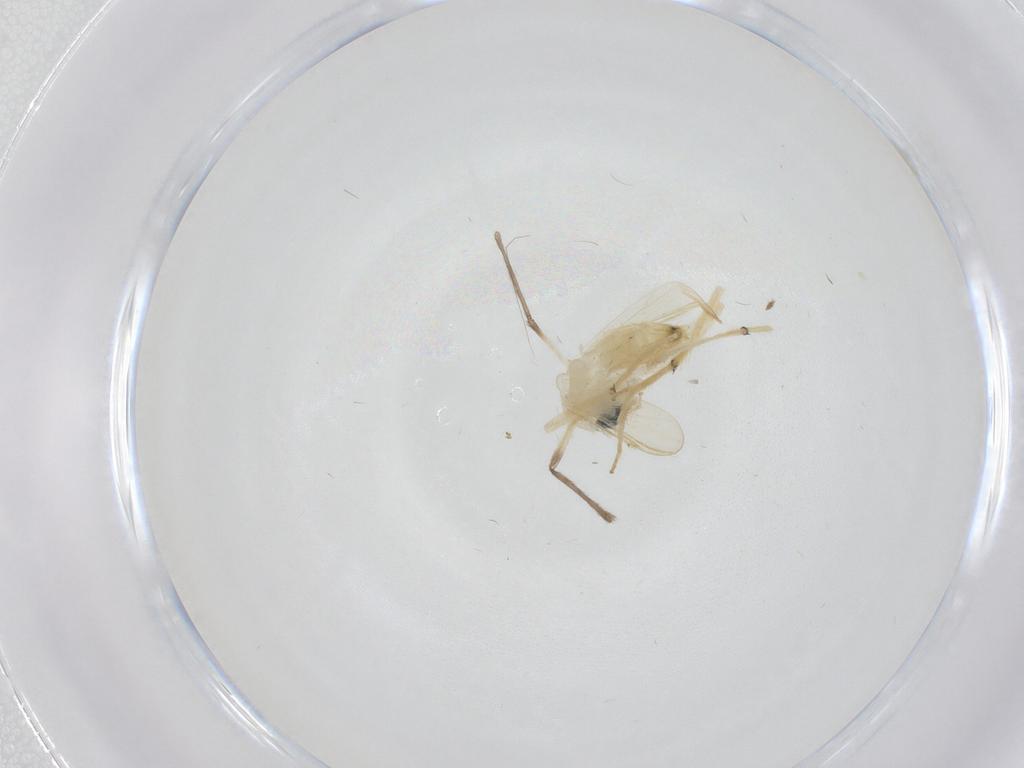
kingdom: Animalia
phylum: Arthropoda
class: Insecta
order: Diptera
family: Chironomidae
